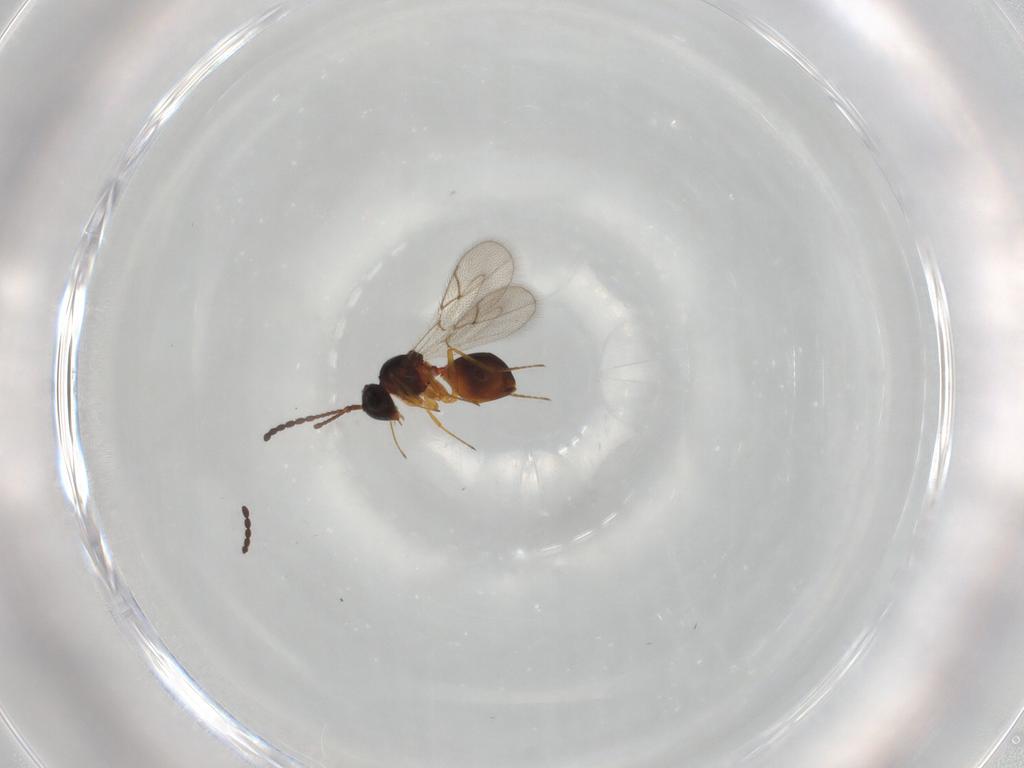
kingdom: Animalia
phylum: Arthropoda
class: Insecta
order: Hymenoptera
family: Figitidae
